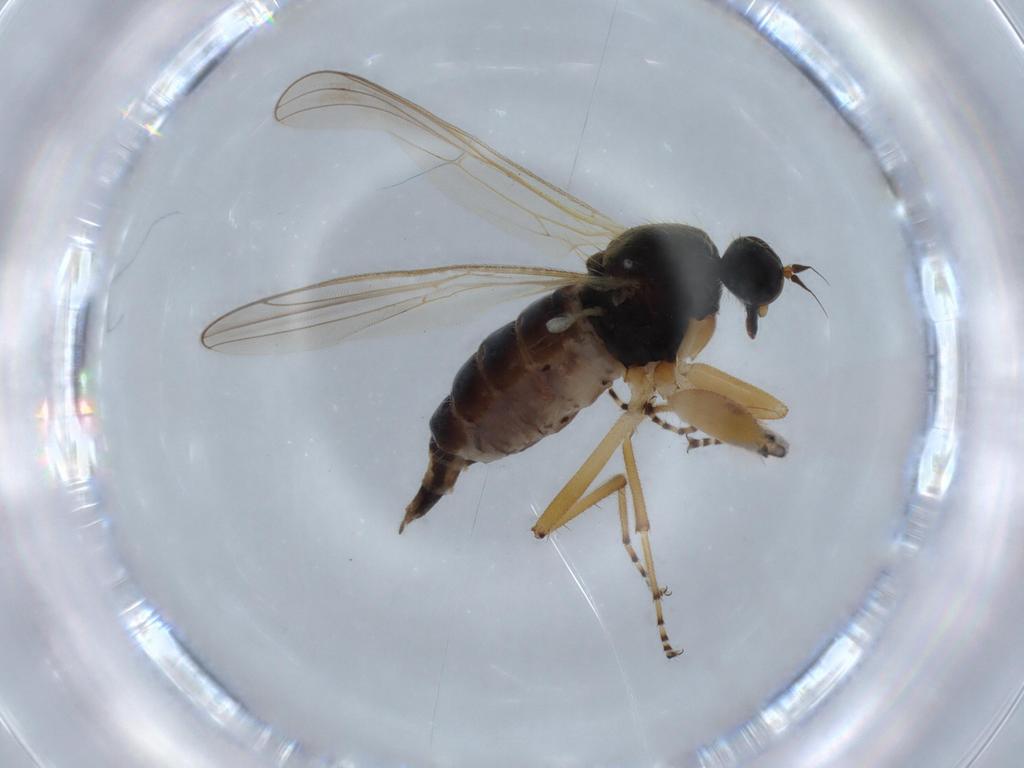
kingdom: Animalia
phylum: Arthropoda
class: Insecta
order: Diptera
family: Hybotidae
